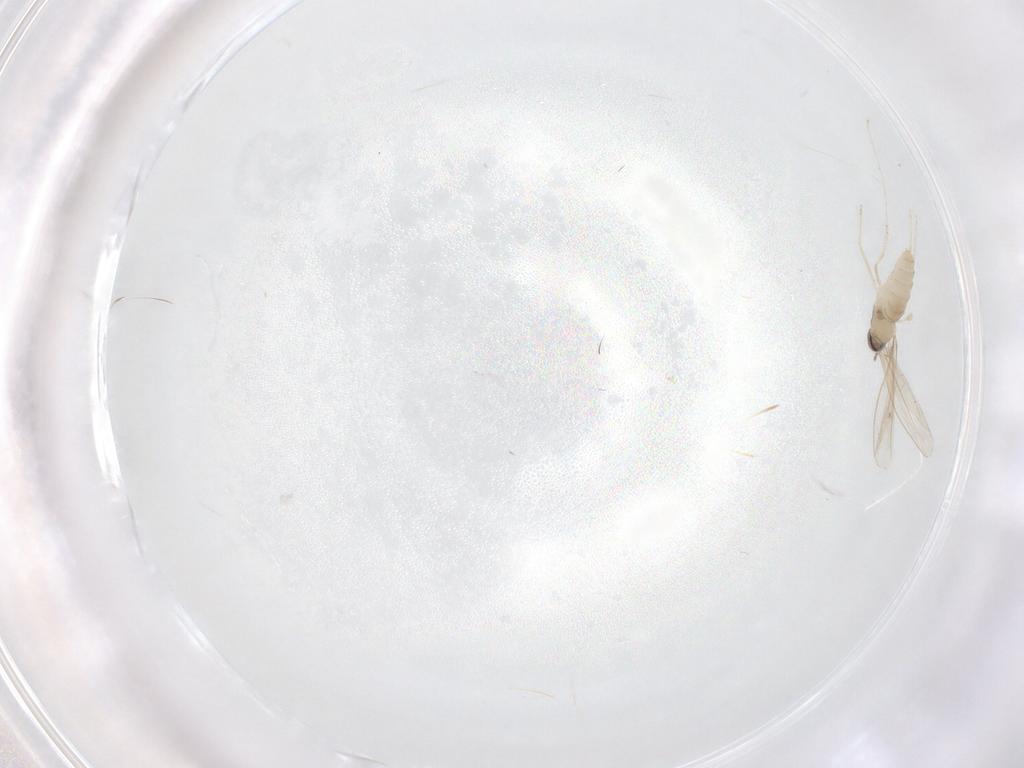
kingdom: Animalia
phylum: Arthropoda
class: Insecta
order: Diptera
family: Cecidomyiidae
